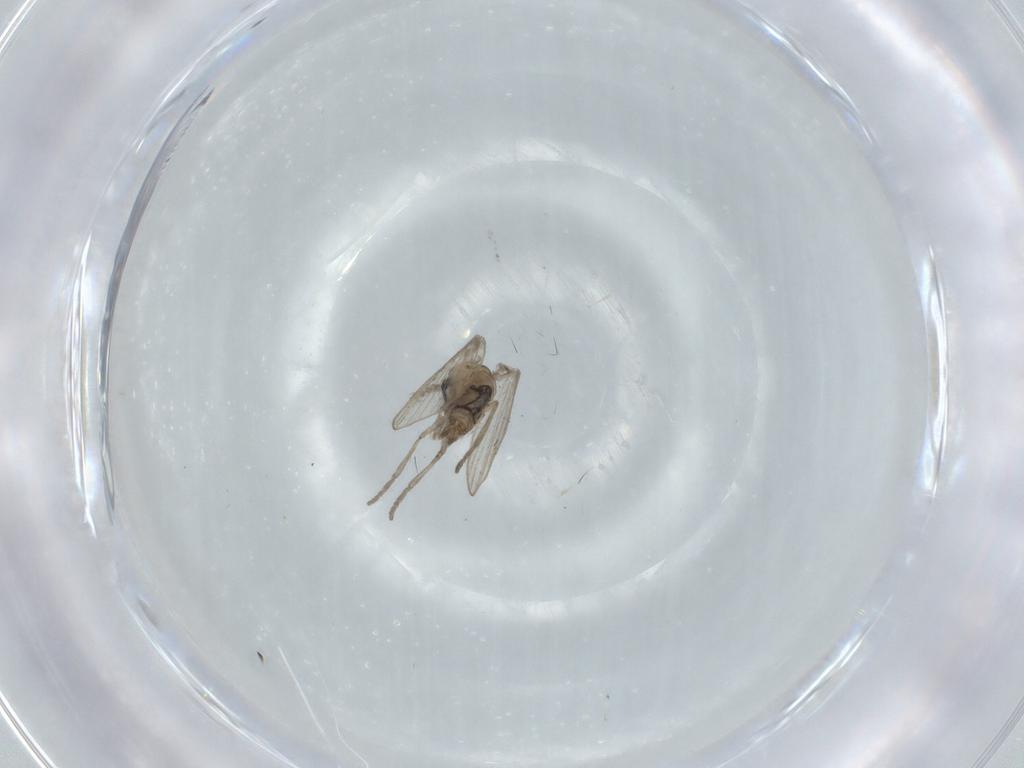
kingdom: Animalia
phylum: Arthropoda
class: Insecta
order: Diptera
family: Psychodidae
